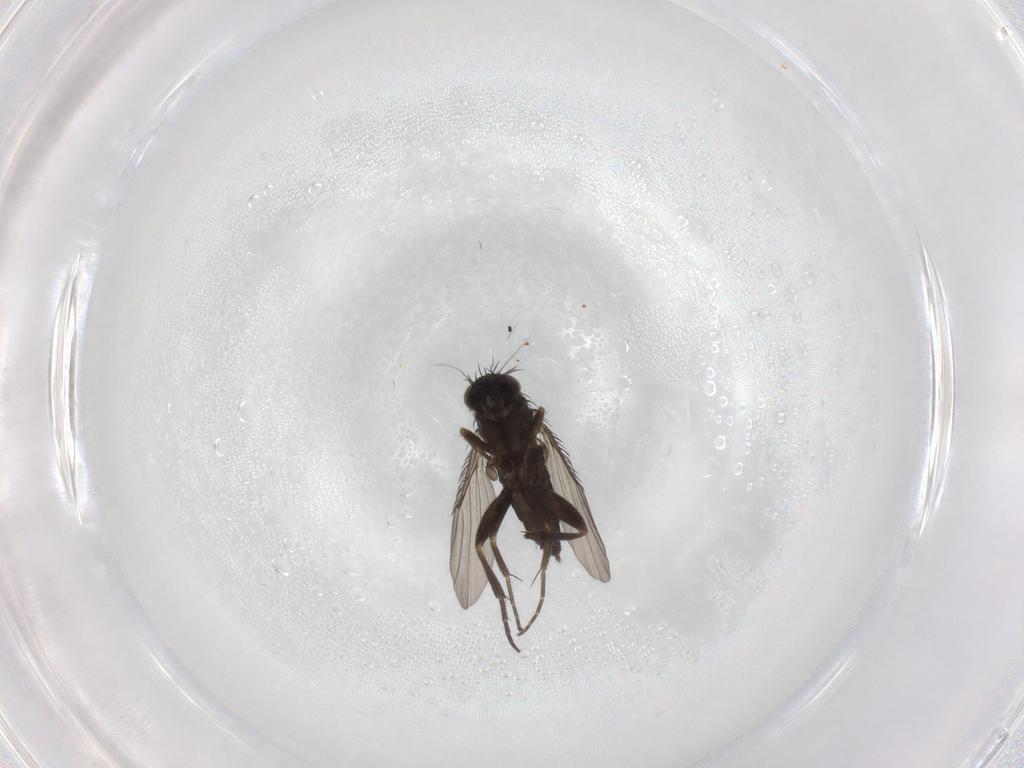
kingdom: Animalia
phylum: Arthropoda
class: Insecta
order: Diptera
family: Phoridae
